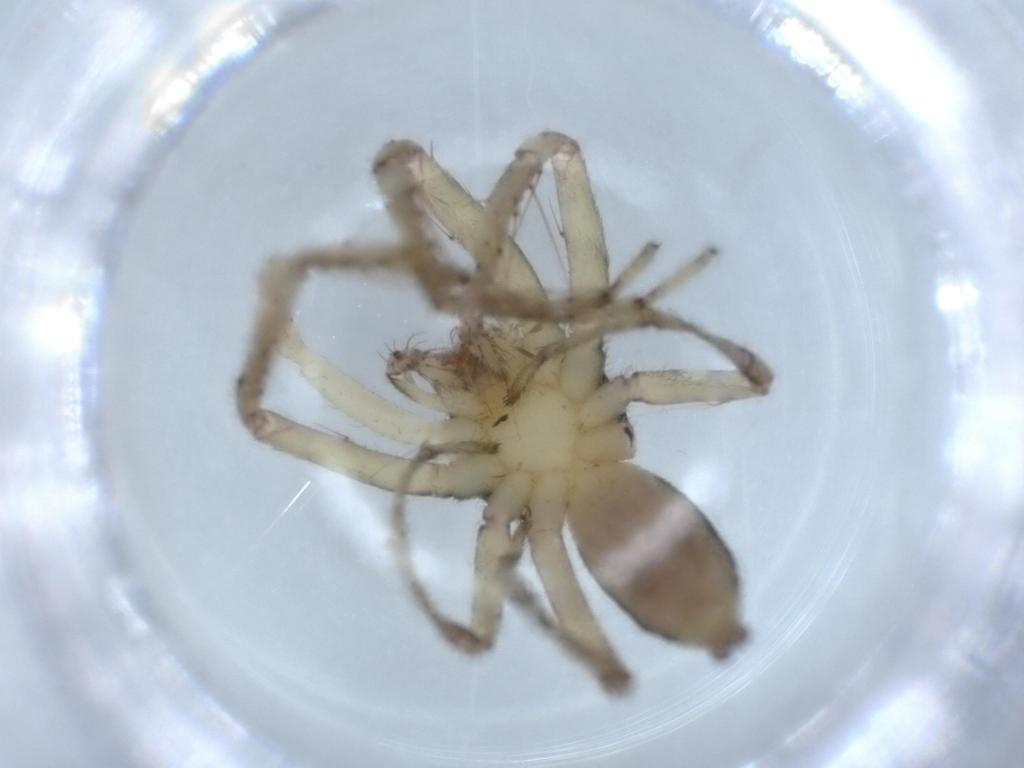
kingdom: Animalia
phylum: Arthropoda
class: Arachnida
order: Araneae
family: Senoculidae
